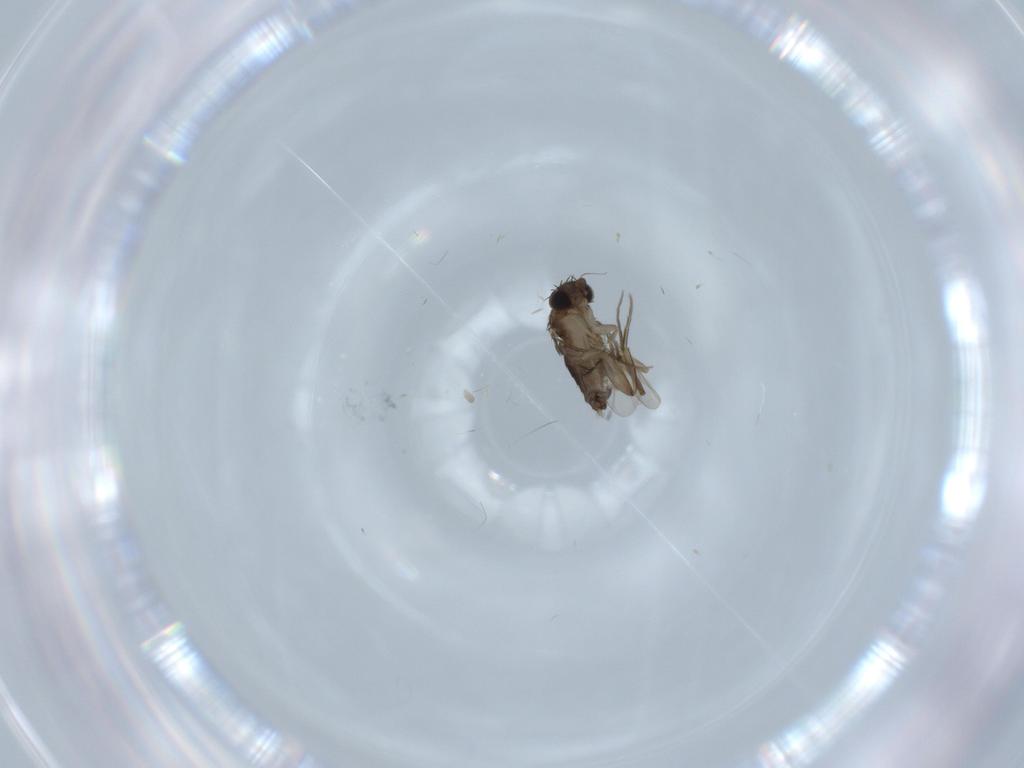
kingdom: Animalia
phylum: Arthropoda
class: Insecta
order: Diptera
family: Phoridae
